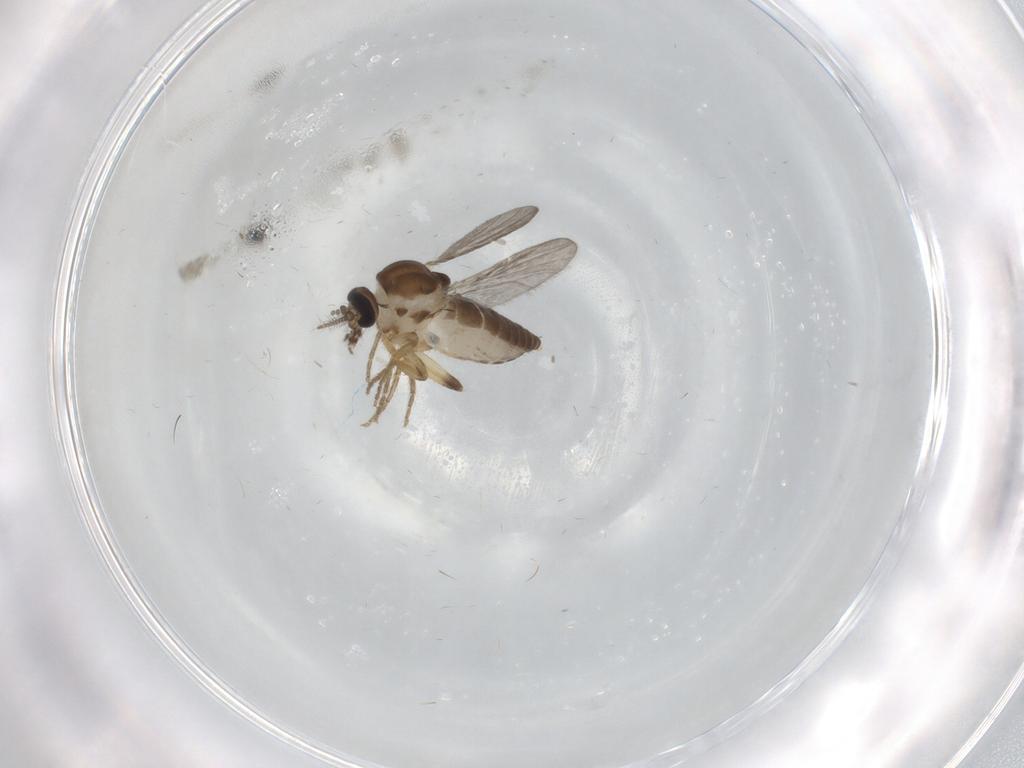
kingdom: Animalia
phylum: Arthropoda
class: Insecta
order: Diptera
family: Ceratopogonidae
